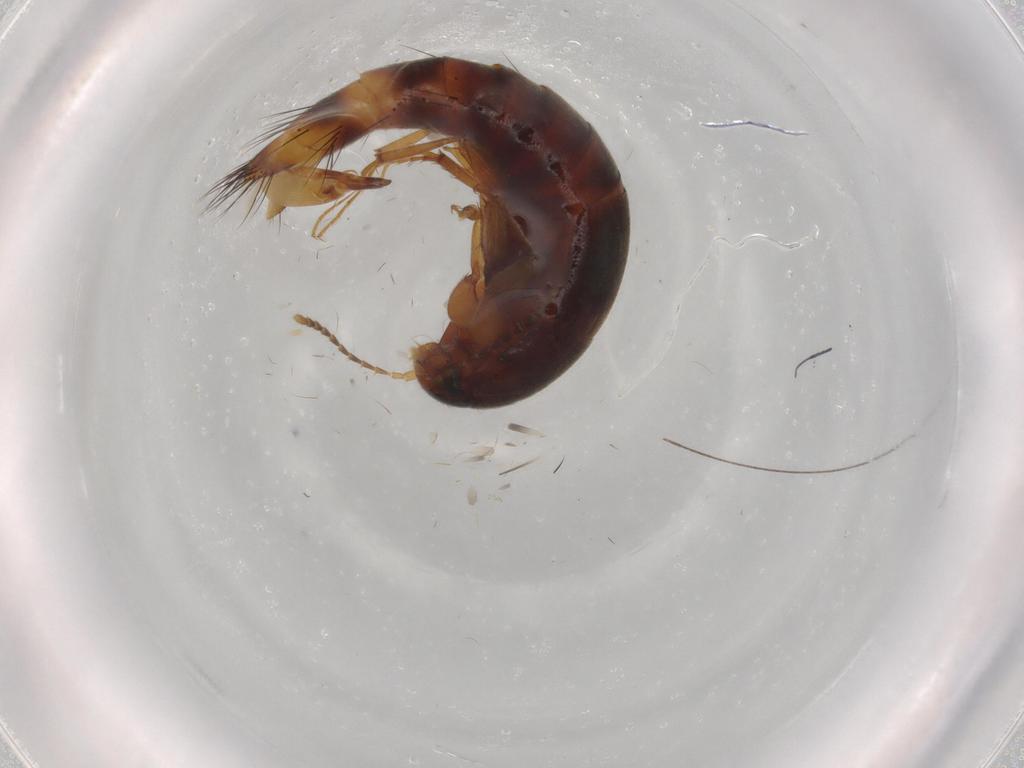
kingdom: Animalia
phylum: Arthropoda
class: Insecta
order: Coleoptera
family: Staphylinidae
